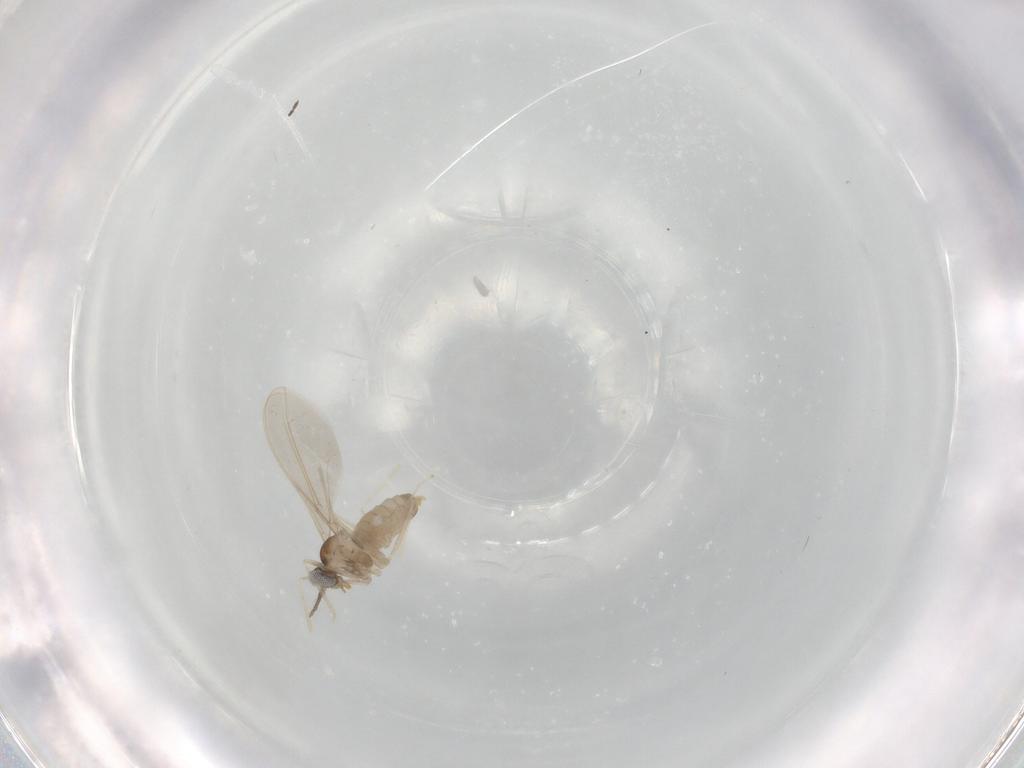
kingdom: Animalia
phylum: Arthropoda
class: Insecta
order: Diptera
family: Cecidomyiidae
